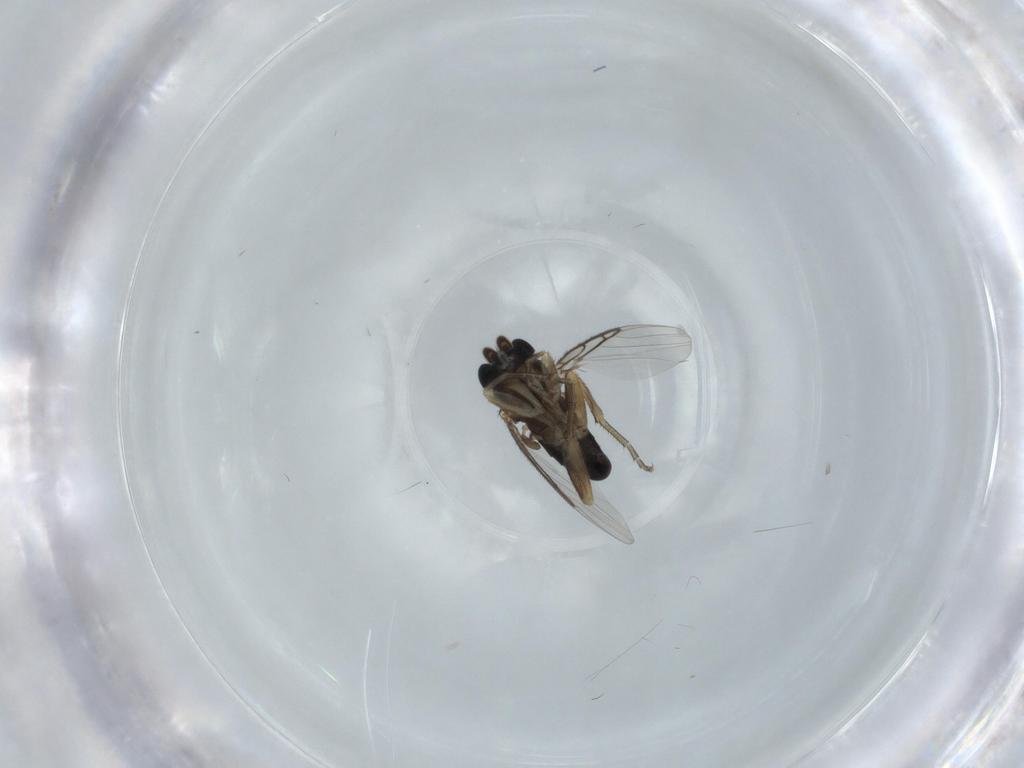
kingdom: Animalia
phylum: Arthropoda
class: Insecta
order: Diptera
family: Phoridae
